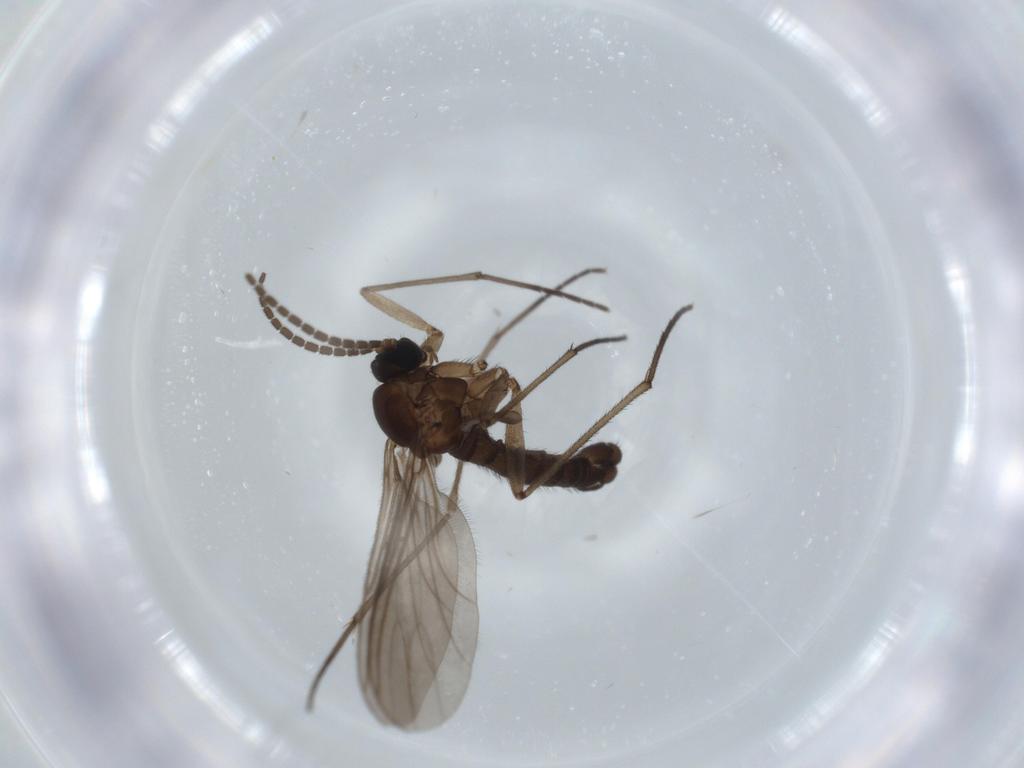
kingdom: Animalia
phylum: Arthropoda
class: Insecta
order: Diptera
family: Sciaridae
